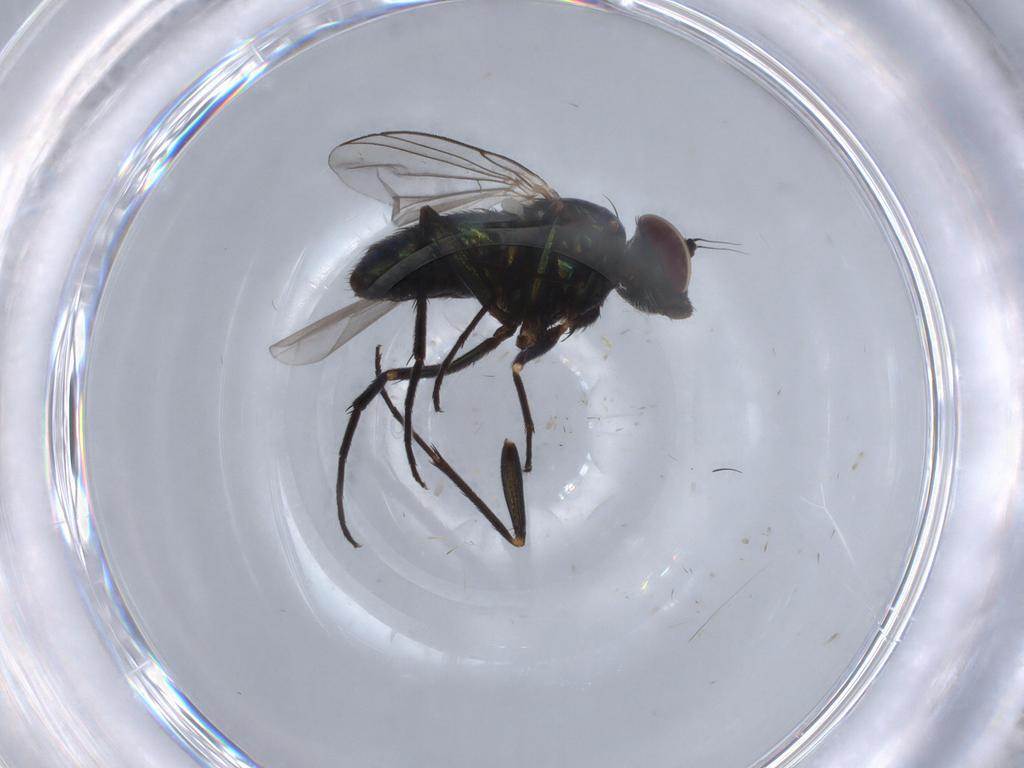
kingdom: Animalia
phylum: Arthropoda
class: Insecta
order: Diptera
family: Dolichopodidae
